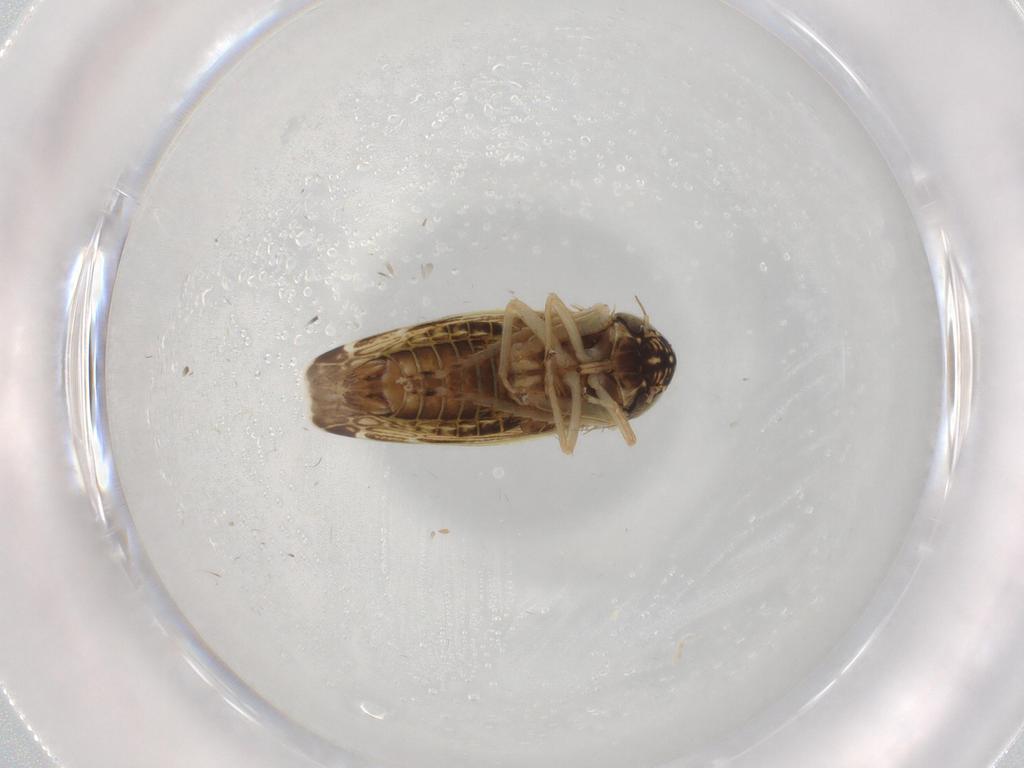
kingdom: Animalia
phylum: Arthropoda
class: Insecta
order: Hemiptera
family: Cicadellidae
